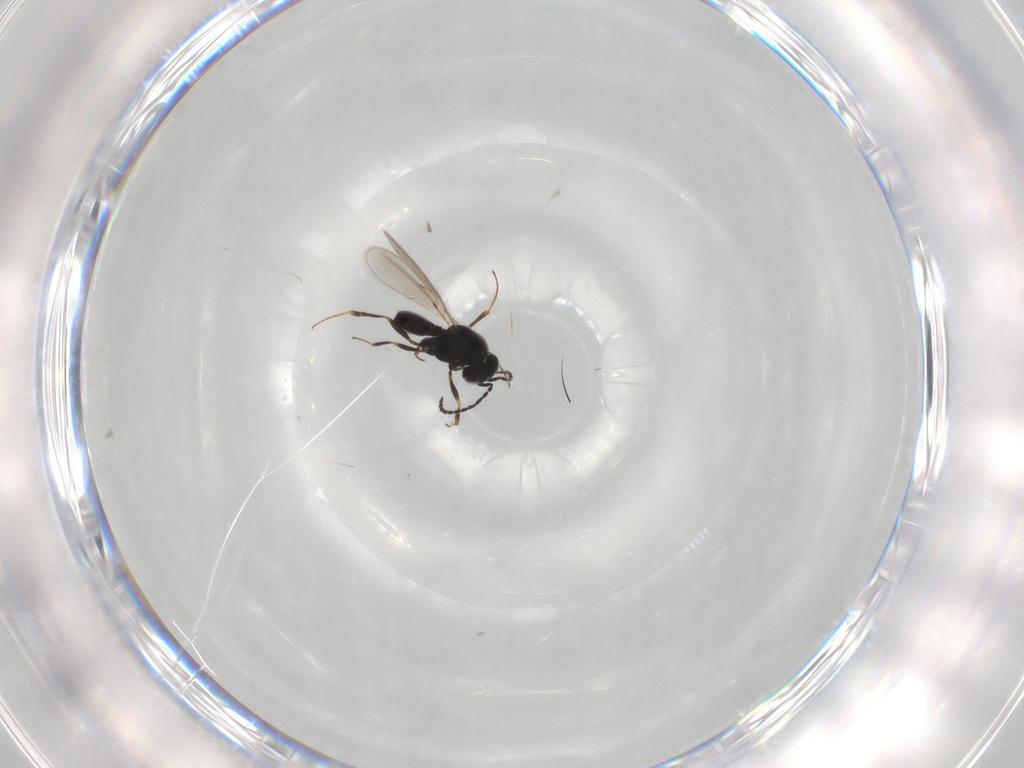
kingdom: Animalia
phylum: Arthropoda
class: Insecta
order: Hymenoptera
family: Scelionidae
